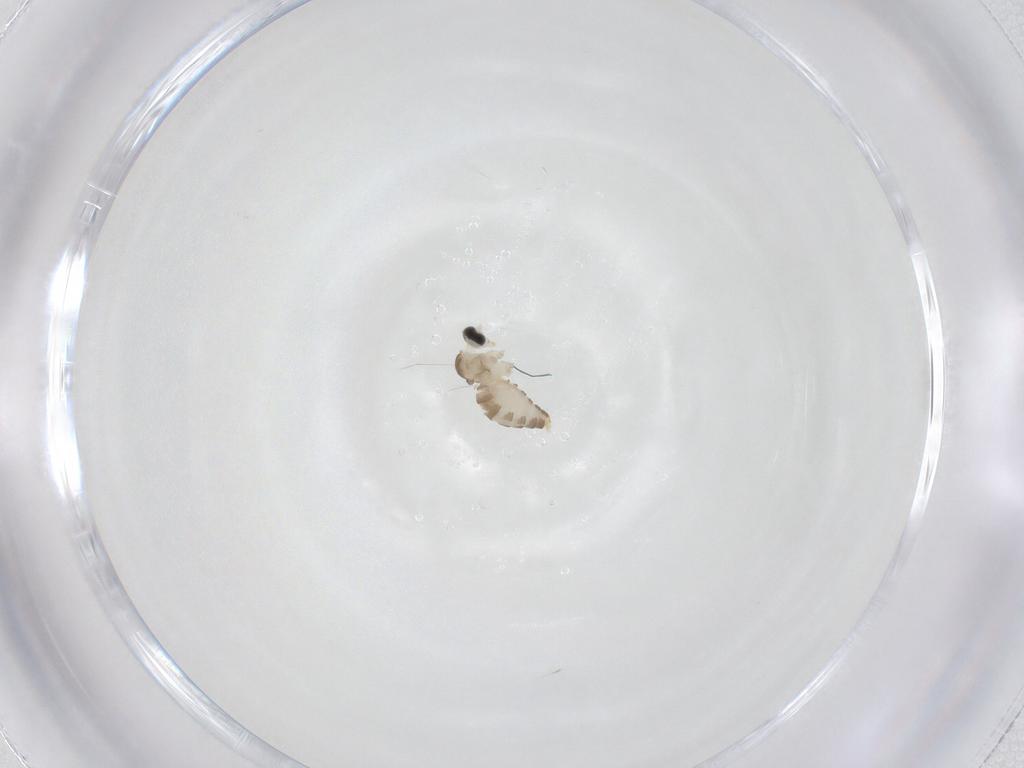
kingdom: Animalia
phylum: Arthropoda
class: Insecta
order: Diptera
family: Cecidomyiidae
